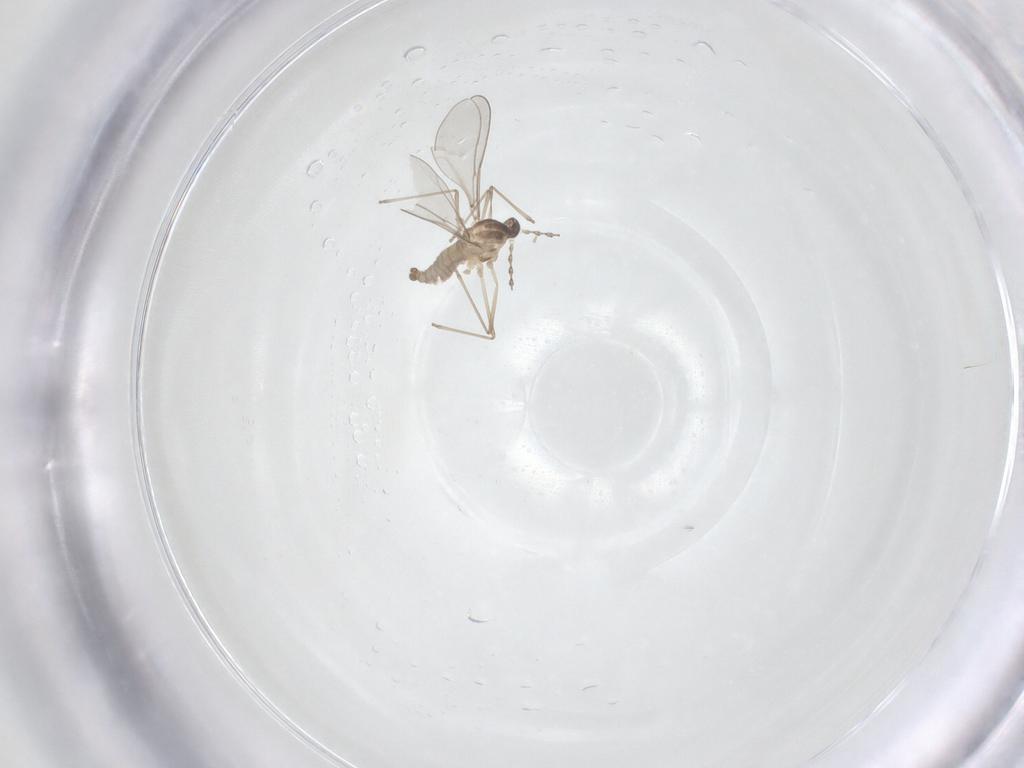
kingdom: Animalia
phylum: Arthropoda
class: Insecta
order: Diptera
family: Cecidomyiidae
